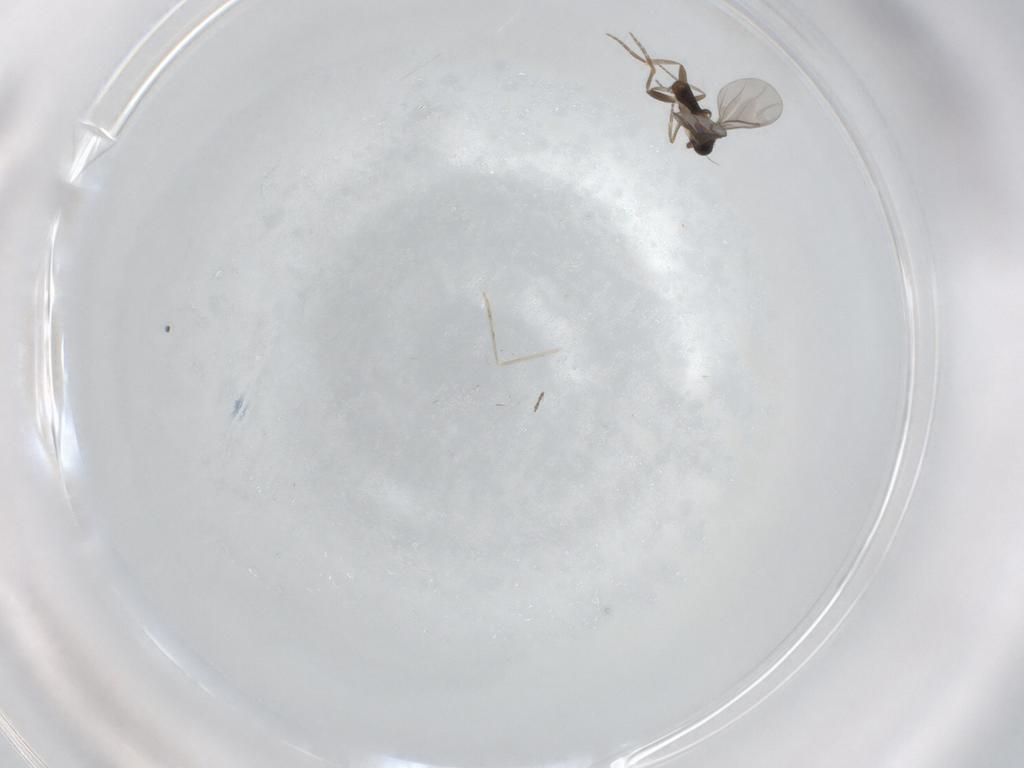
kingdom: Animalia
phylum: Arthropoda
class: Insecta
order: Diptera
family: Cecidomyiidae
